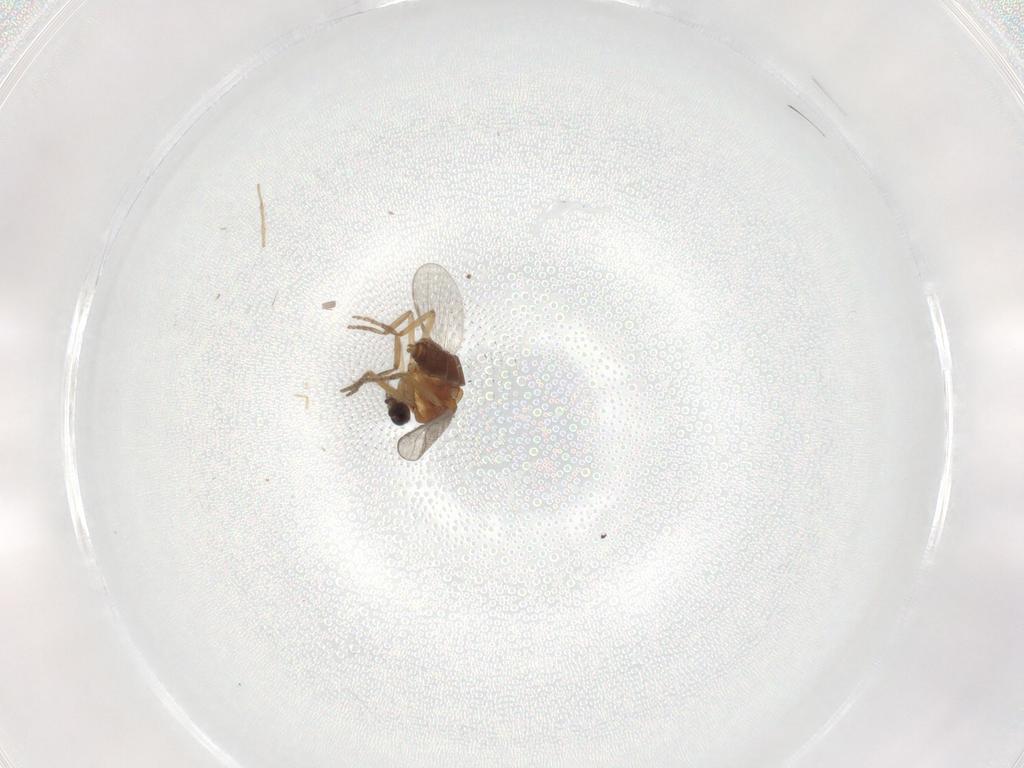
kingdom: Animalia
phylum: Arthropoda
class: Insecta
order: Diptera
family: Ceratopogonidae
